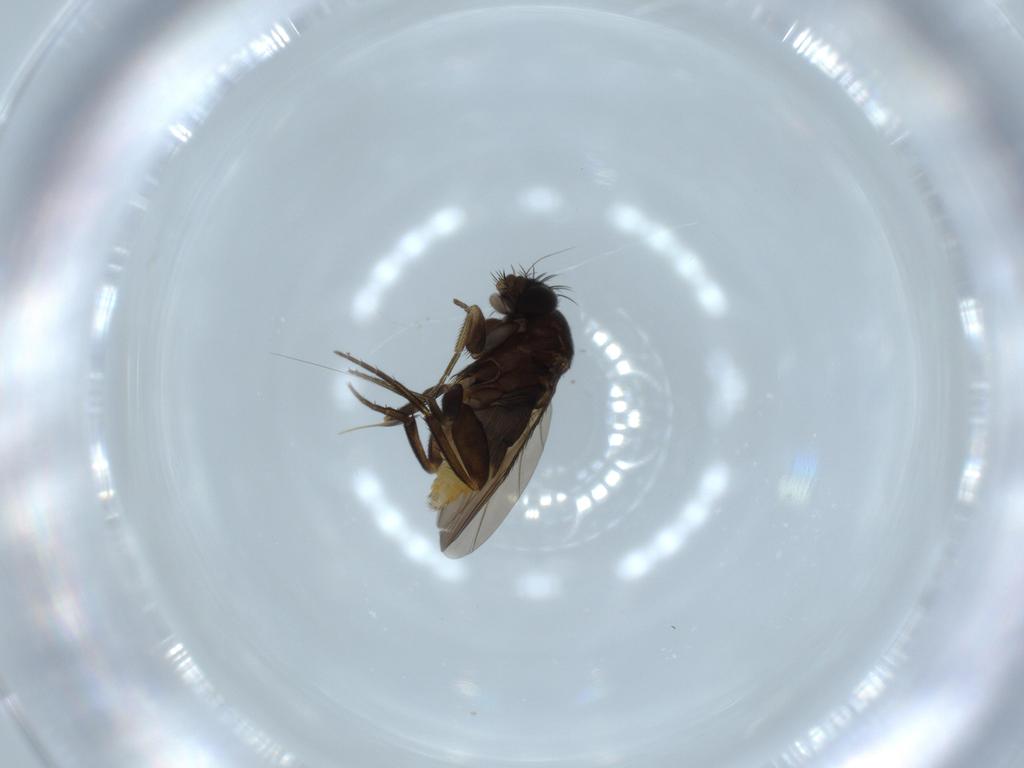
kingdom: Animalia
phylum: Arthropoda
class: Insecta
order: Diptera
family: Phoridae
